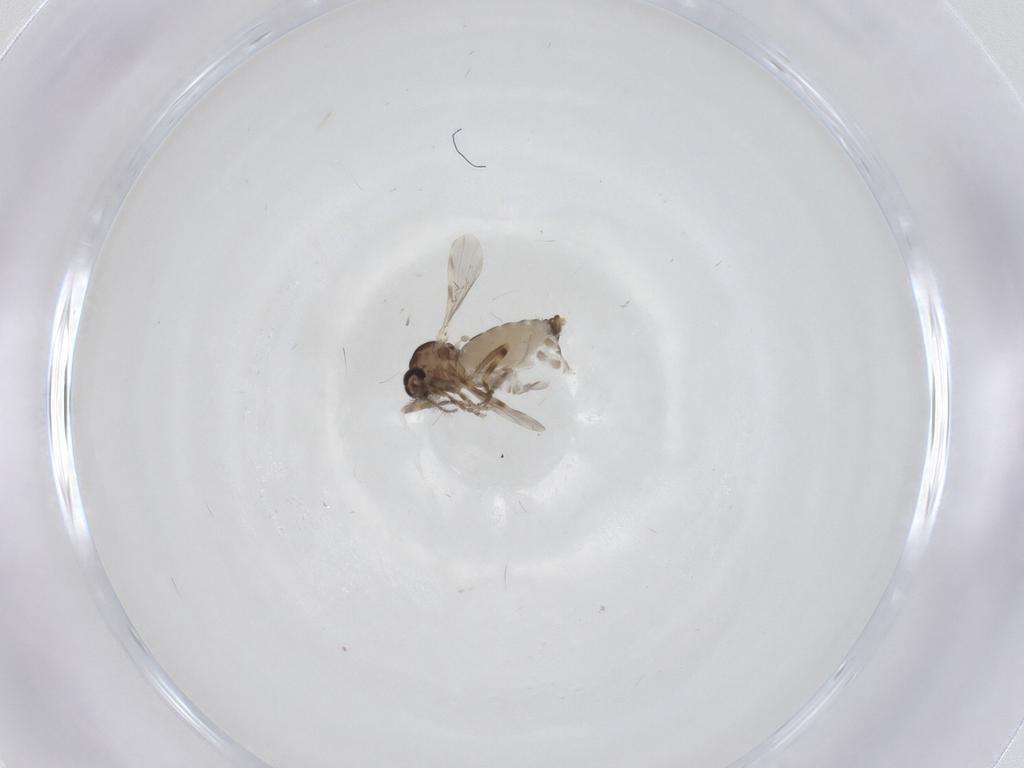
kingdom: Animalia
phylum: Arthropoda
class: Insecta
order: Diptera
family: Ceratopogonidae
